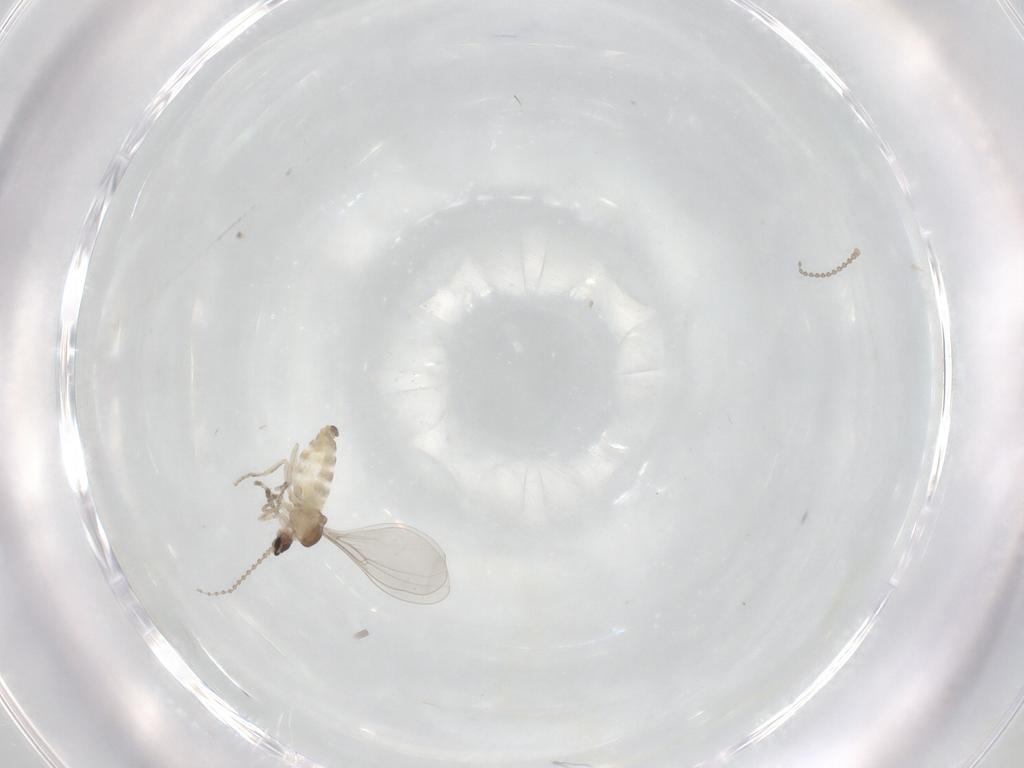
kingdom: Animalia
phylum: Arthropoda
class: Insecta
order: Diptera
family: Cecidomyiidae
